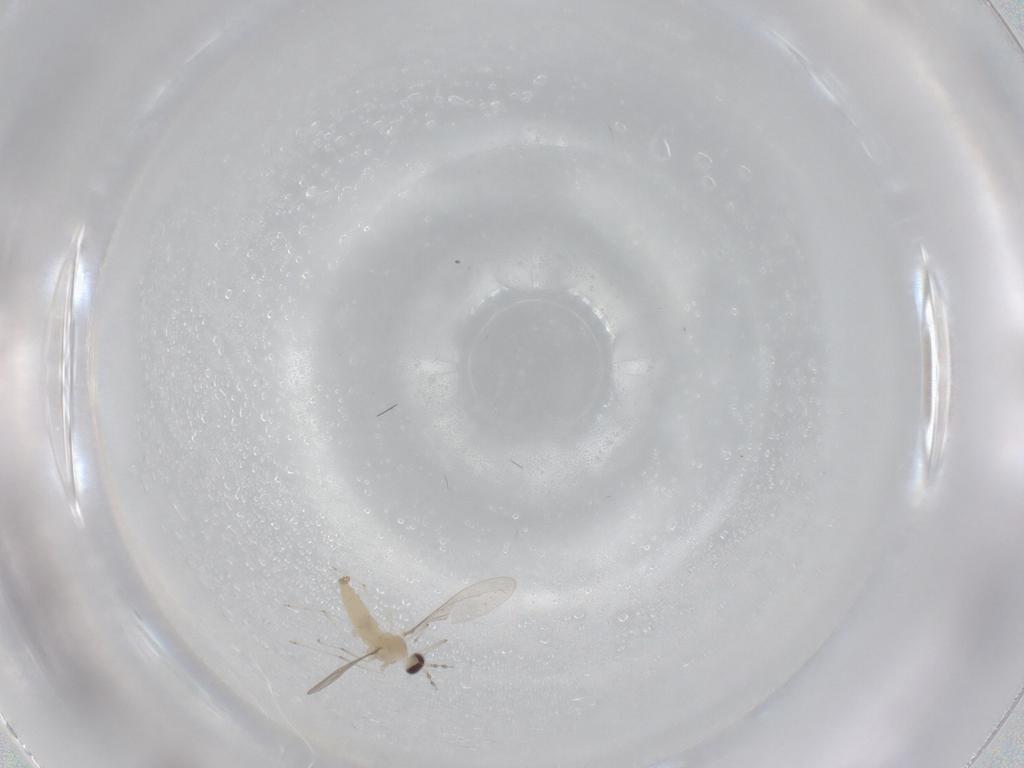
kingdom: Animalia
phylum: Arthropoda
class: Insecta
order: Diptera
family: Cecidomyiidae
